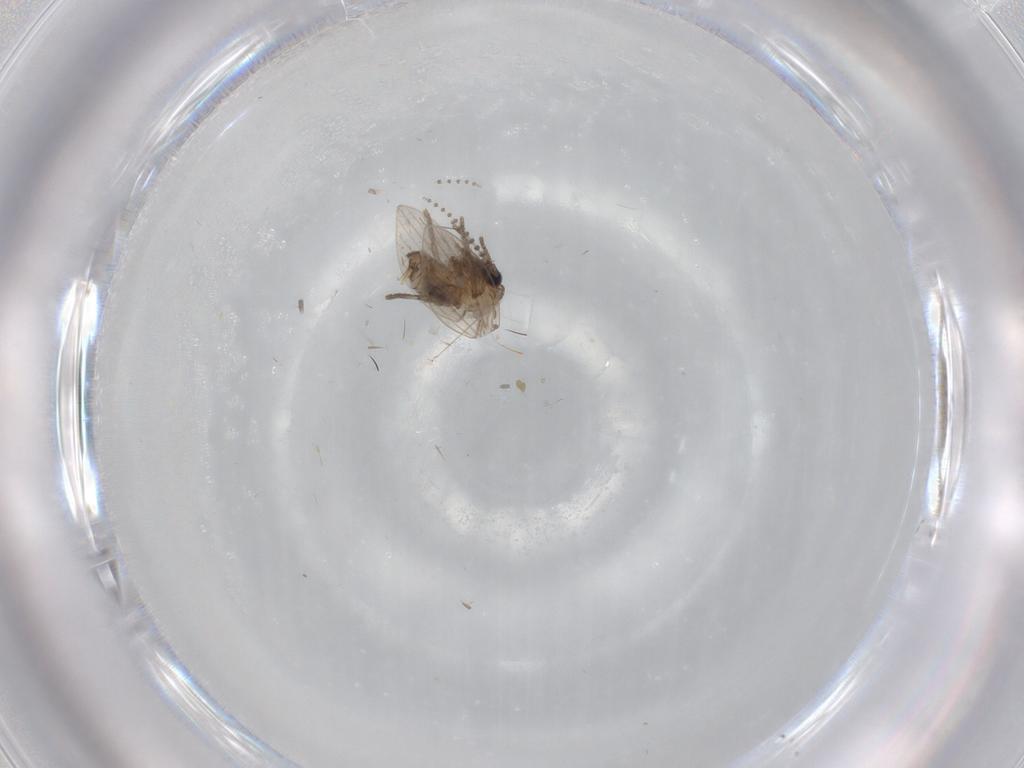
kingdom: Animalia
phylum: Arthropoda
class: Insecta
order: Diptera
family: Psychodidae
